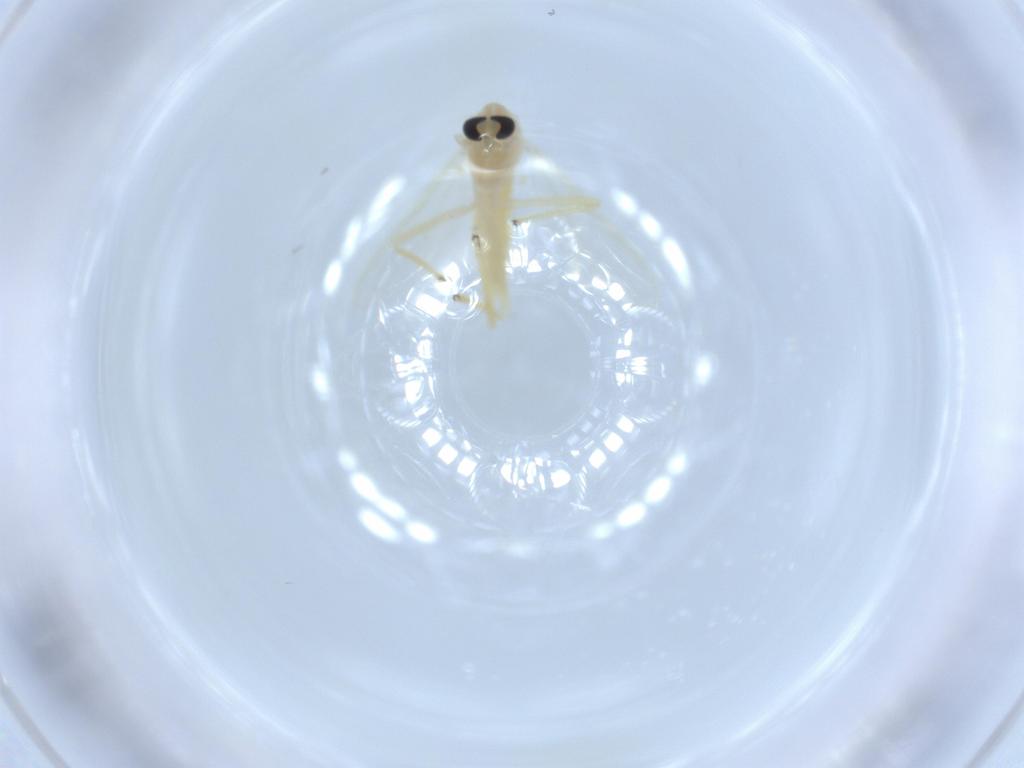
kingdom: Animalia
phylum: Arthropoda
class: Insecta
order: Diptera
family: Chironomidae
